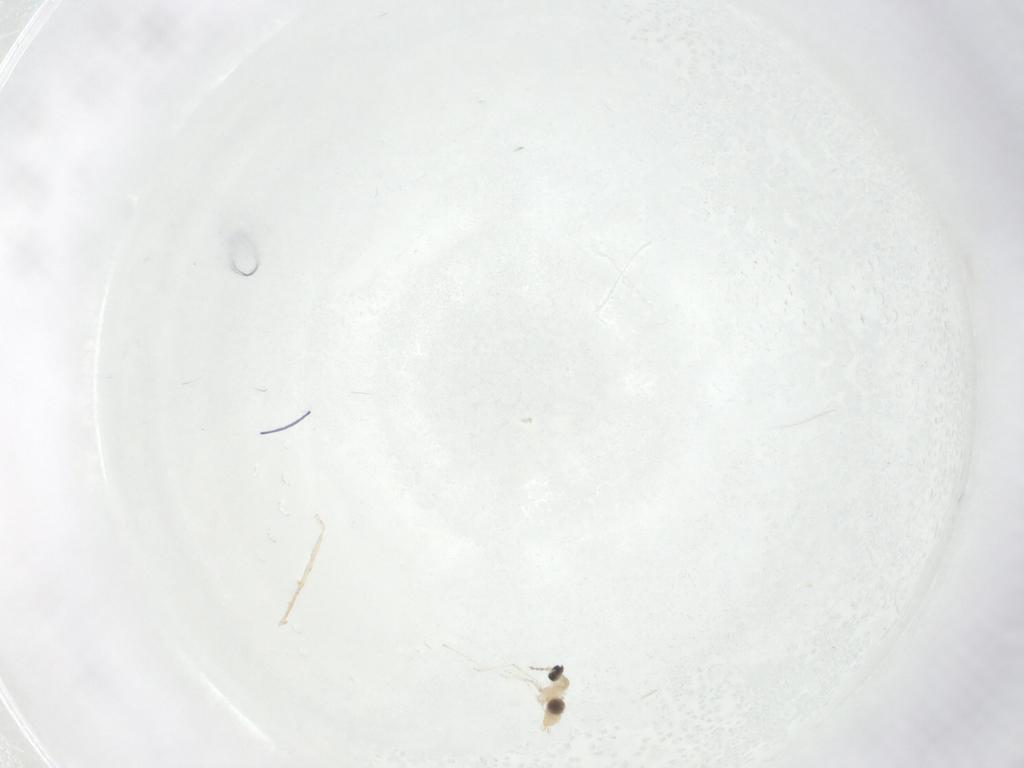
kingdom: Animalia
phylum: Arthropoda
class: Insecta
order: Diptera
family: Cecidomyiidae
